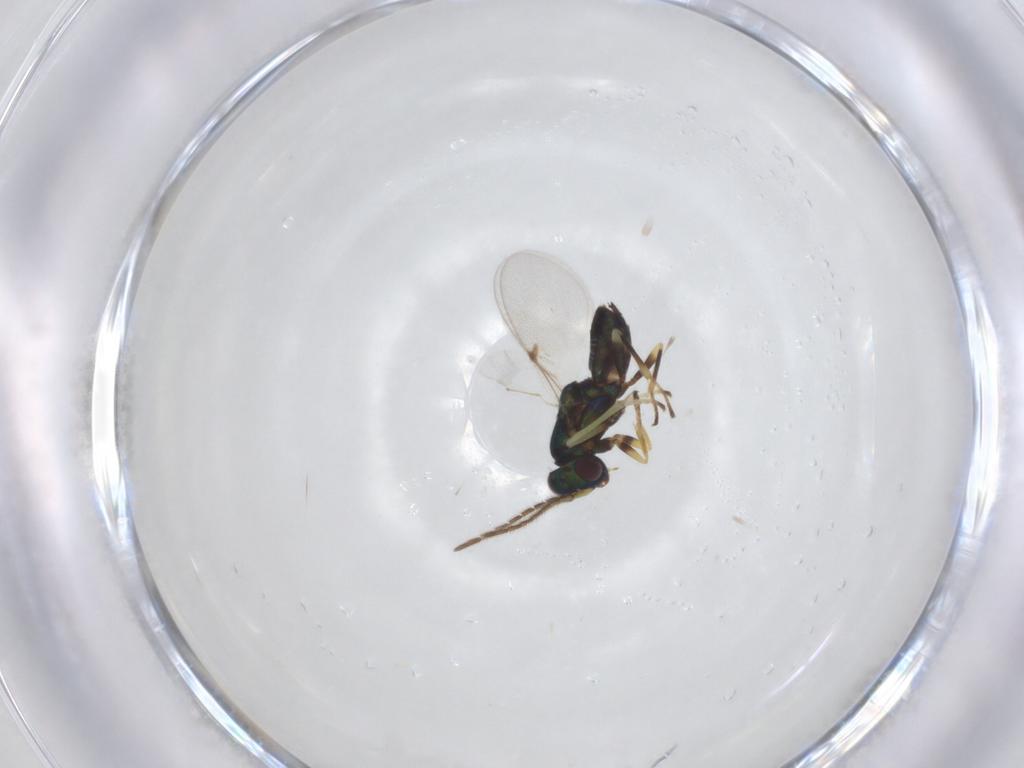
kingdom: Animalia
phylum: Arthropoda
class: Insecta
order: Hymenoptera
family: Encyrtidae
